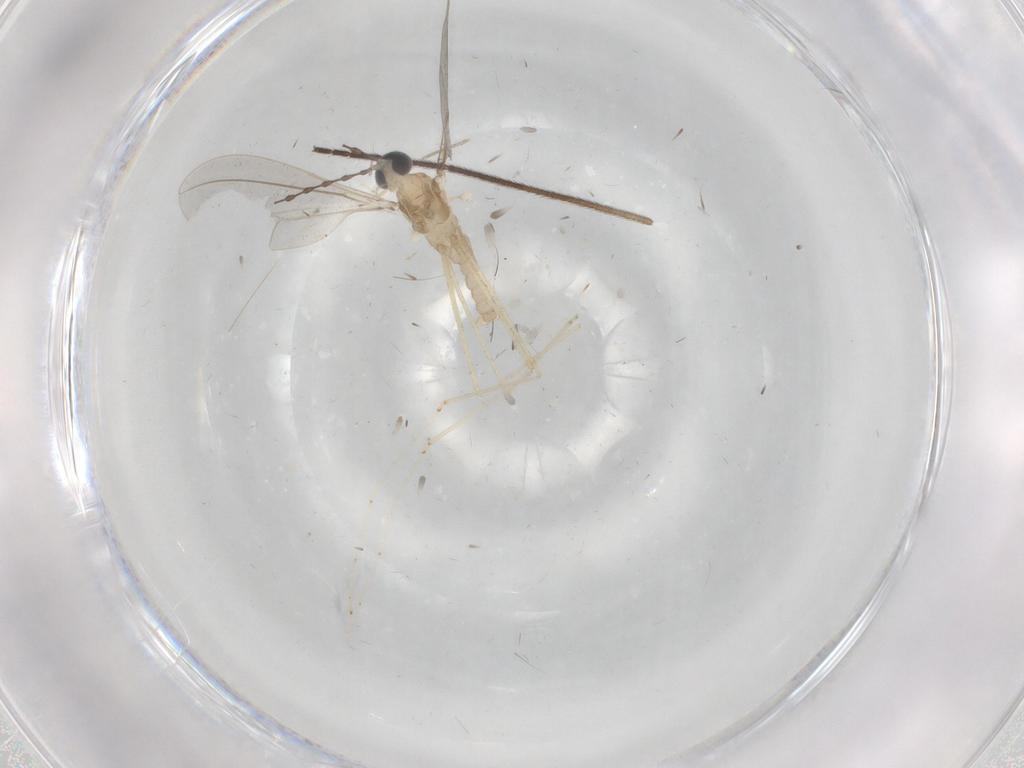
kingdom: Animalia
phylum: Arthropoda
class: Insecta
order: Diptera
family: Cecidomyiidae
